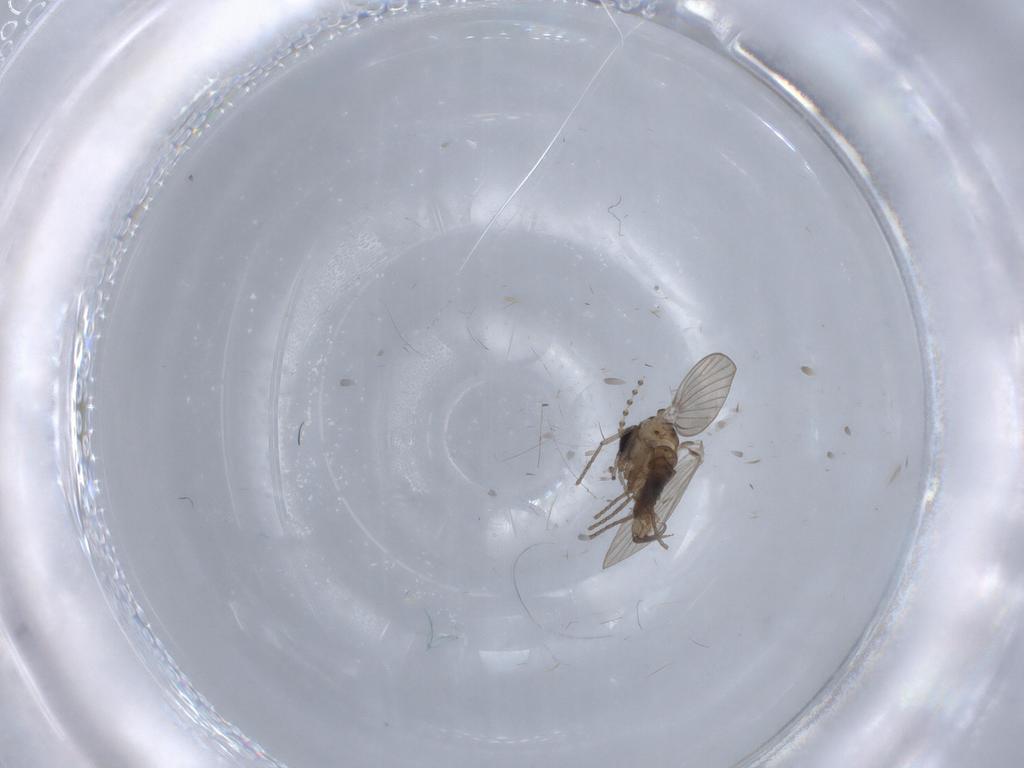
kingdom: Animalia
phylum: Arthropoda
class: Insecta
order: Diptera
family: Drosophilidae
